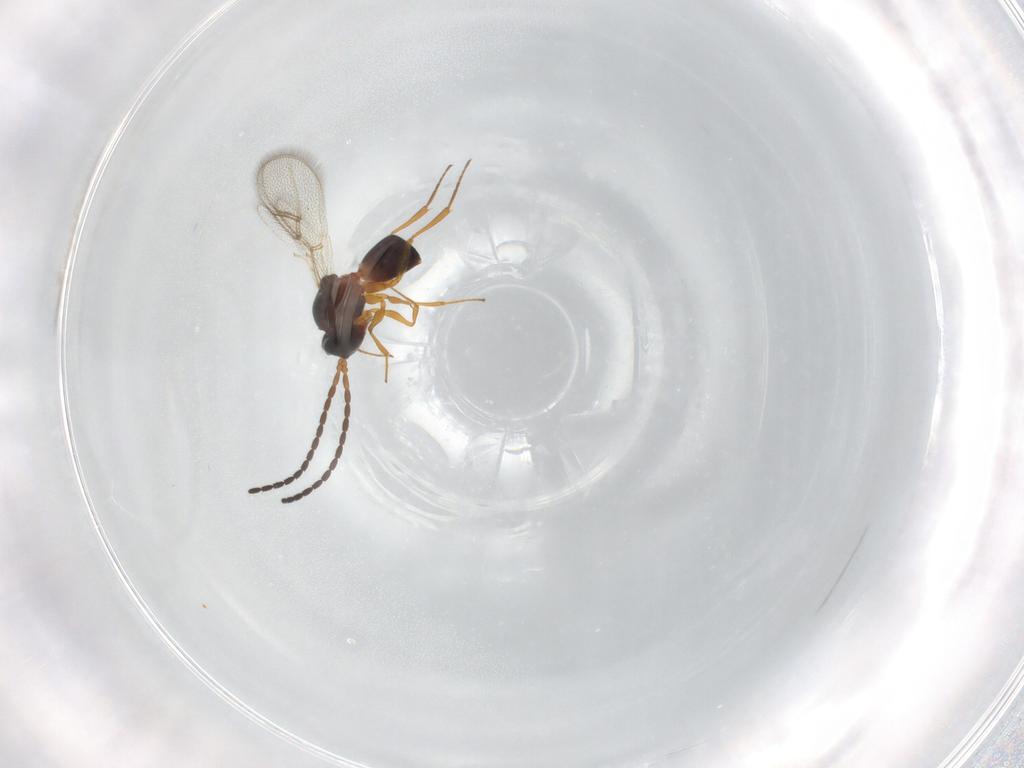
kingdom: Animalia
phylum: Arthropoda
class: Insecta
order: Hymenoptera
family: Figitidae
